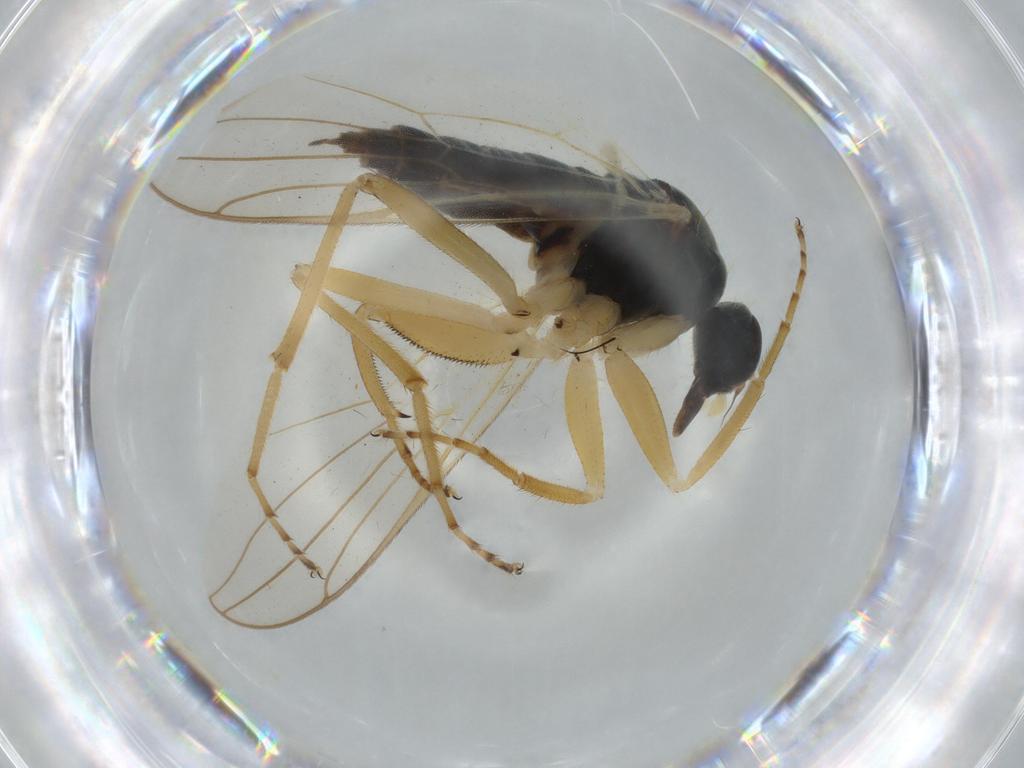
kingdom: Animalia
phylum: Arthropoda
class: Insecta
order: Diptera
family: Hybotidae
